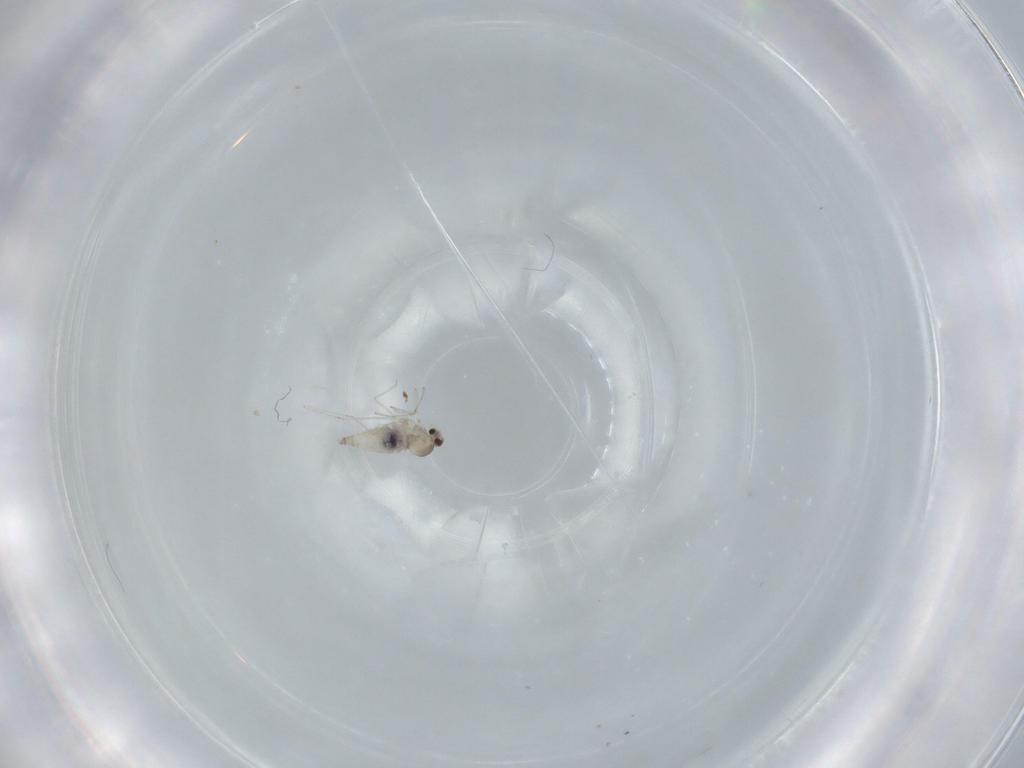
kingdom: Animalia
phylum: Arthropoda
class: Insecta
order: Diptera
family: Cecidomyiidae
